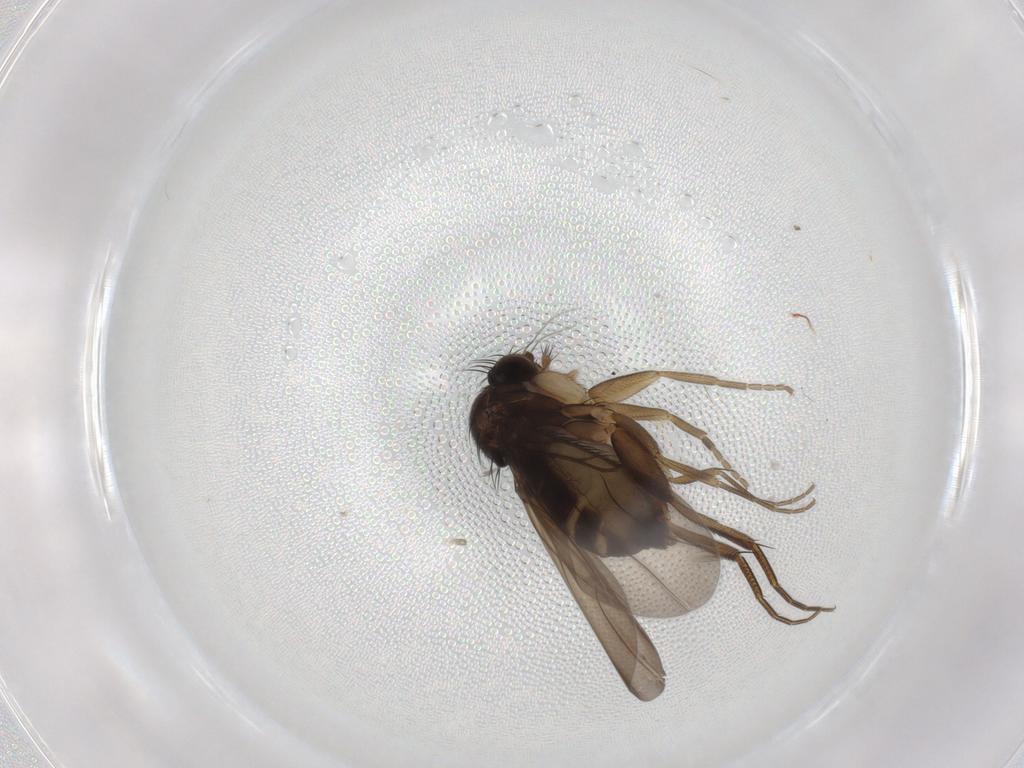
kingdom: Animalia
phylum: Arthropoda
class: Insecta
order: Diptera
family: Phoridae
